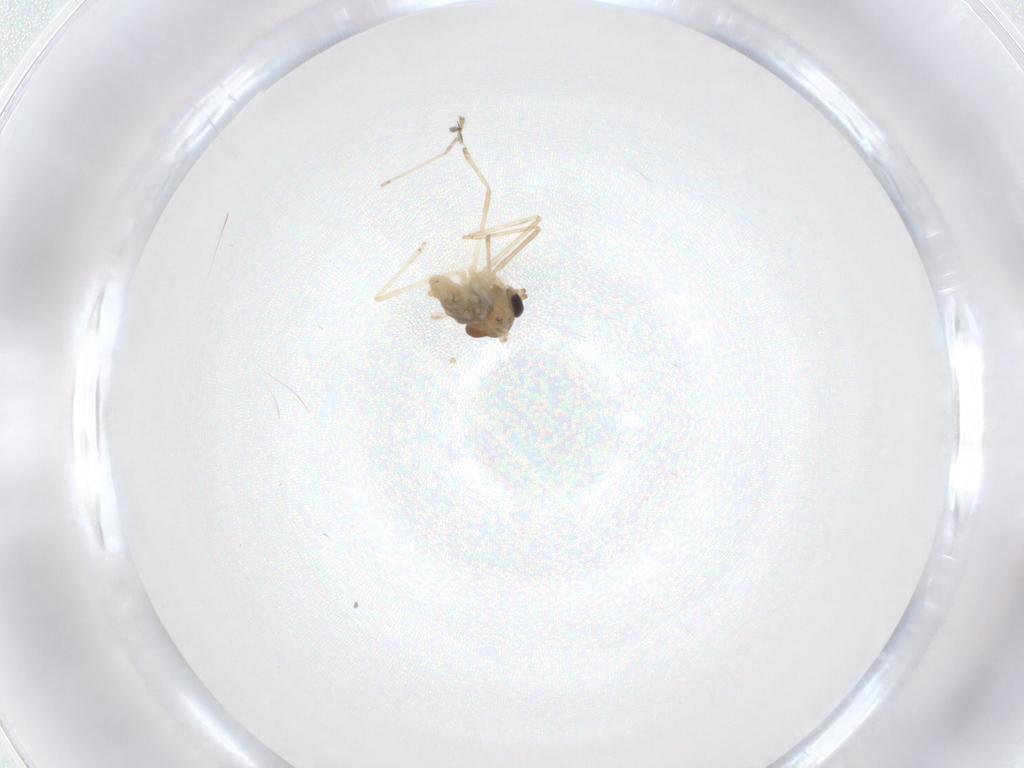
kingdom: Animalia
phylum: Arthropoda
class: Insecta
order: Diptera
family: Cecidomyiidae
